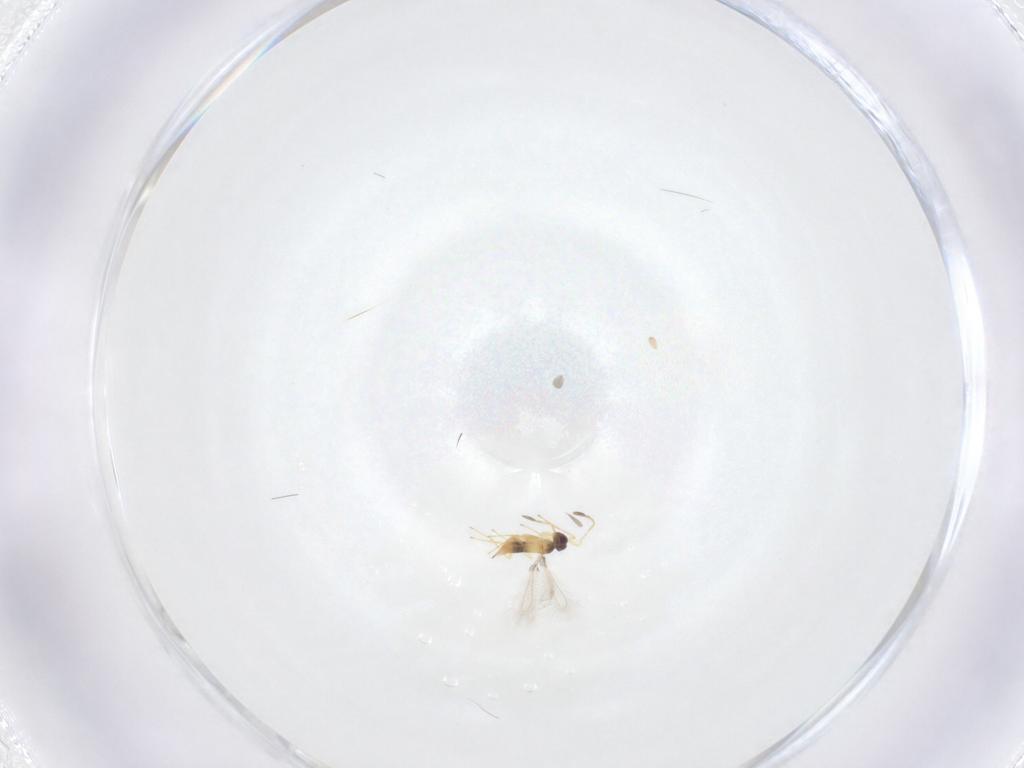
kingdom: Animalia
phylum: Arthropoda
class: Insecta
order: Hymenoptera
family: Mymaridae
